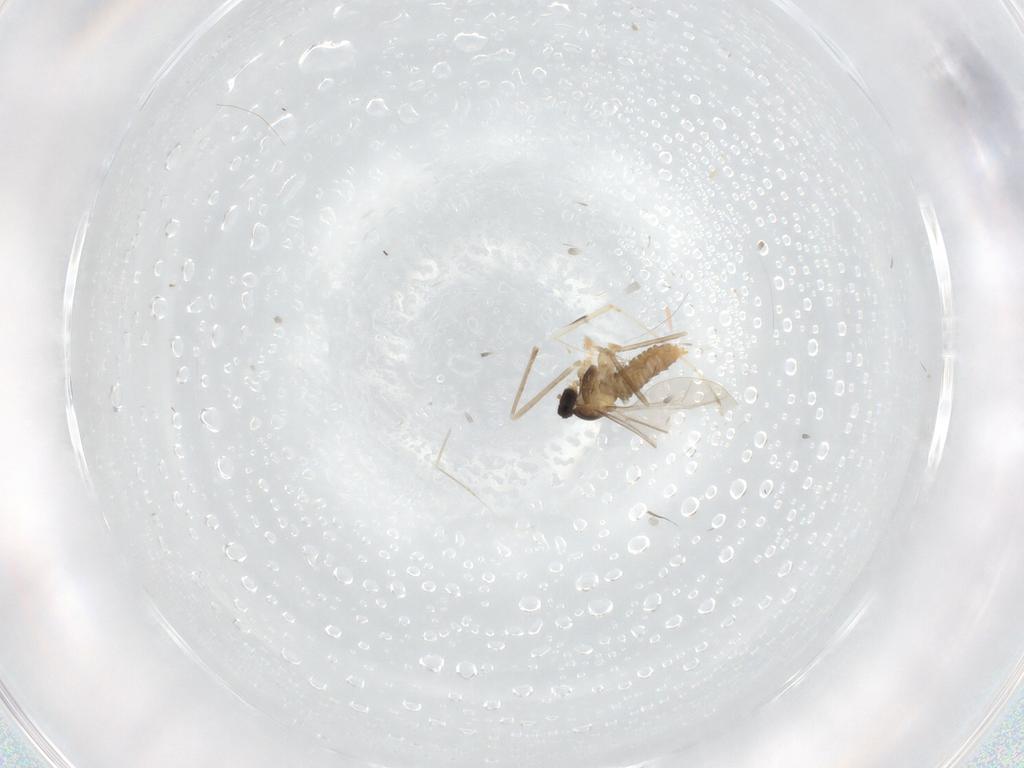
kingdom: Animalia
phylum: Arthropoda
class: Insecta
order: Diptera
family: Cecidomyiidae
